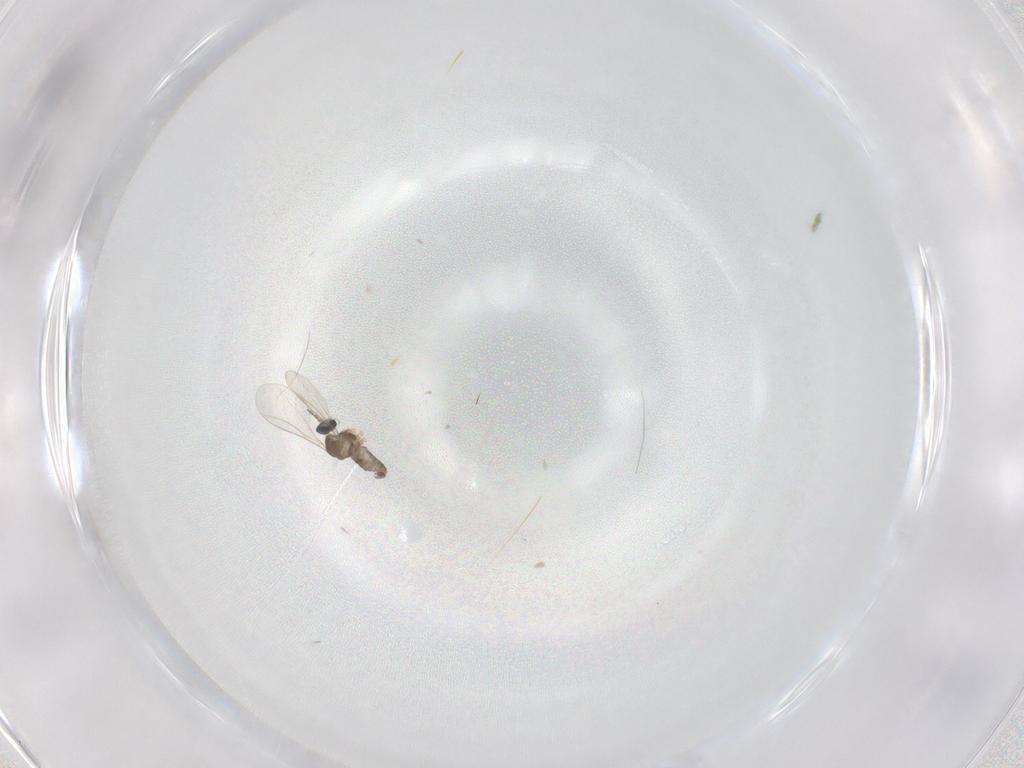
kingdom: Animalia
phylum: Arthropoda
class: Insecta
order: Diptera
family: Cecidomyiidae
